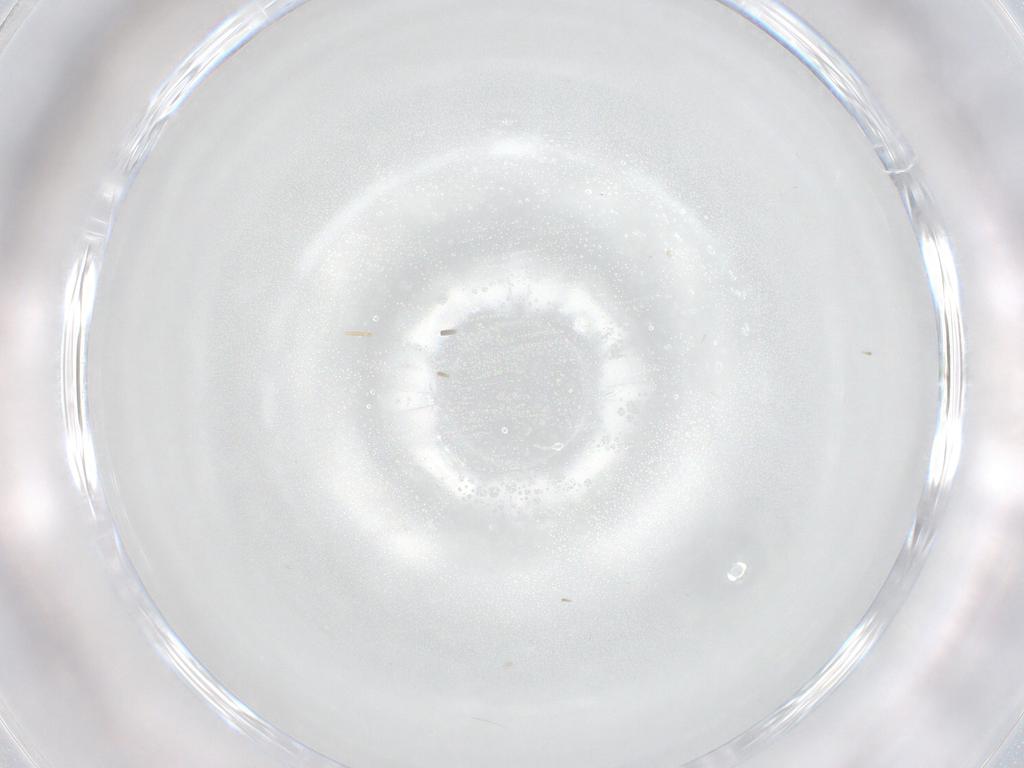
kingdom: Animalia
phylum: Arthropoda
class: Insecta
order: Diptera
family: Cecidomyiidae
